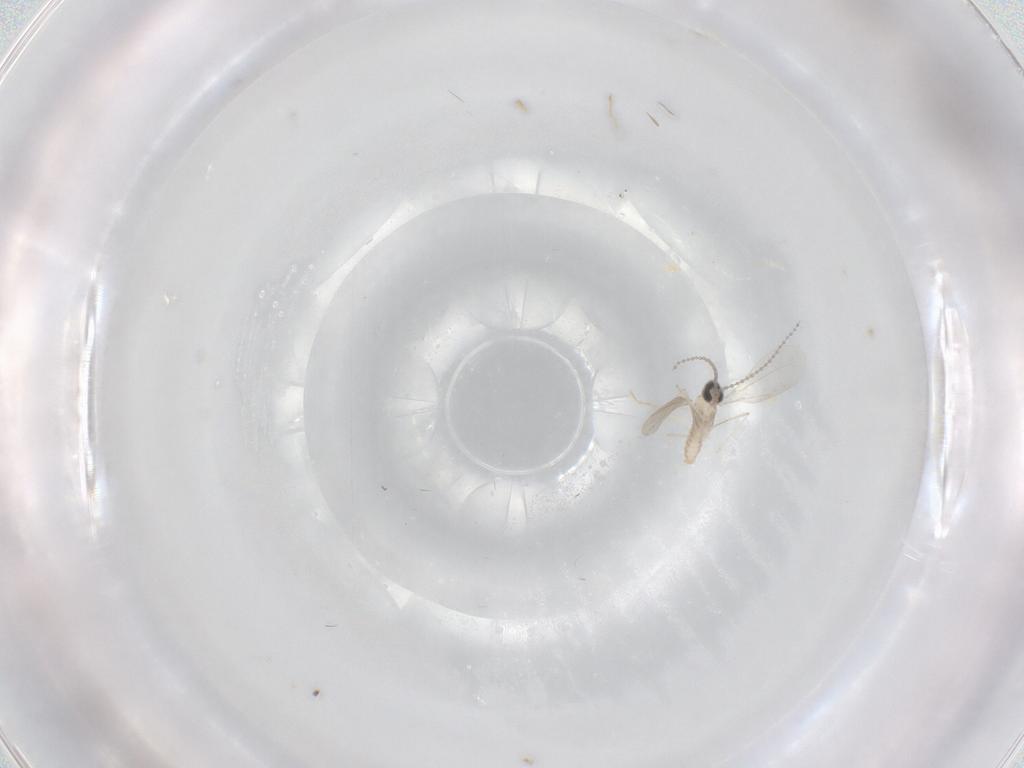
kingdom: Animalia
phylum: Arthropoda
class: Insecta
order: Diptera
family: Cecidomyiidae
